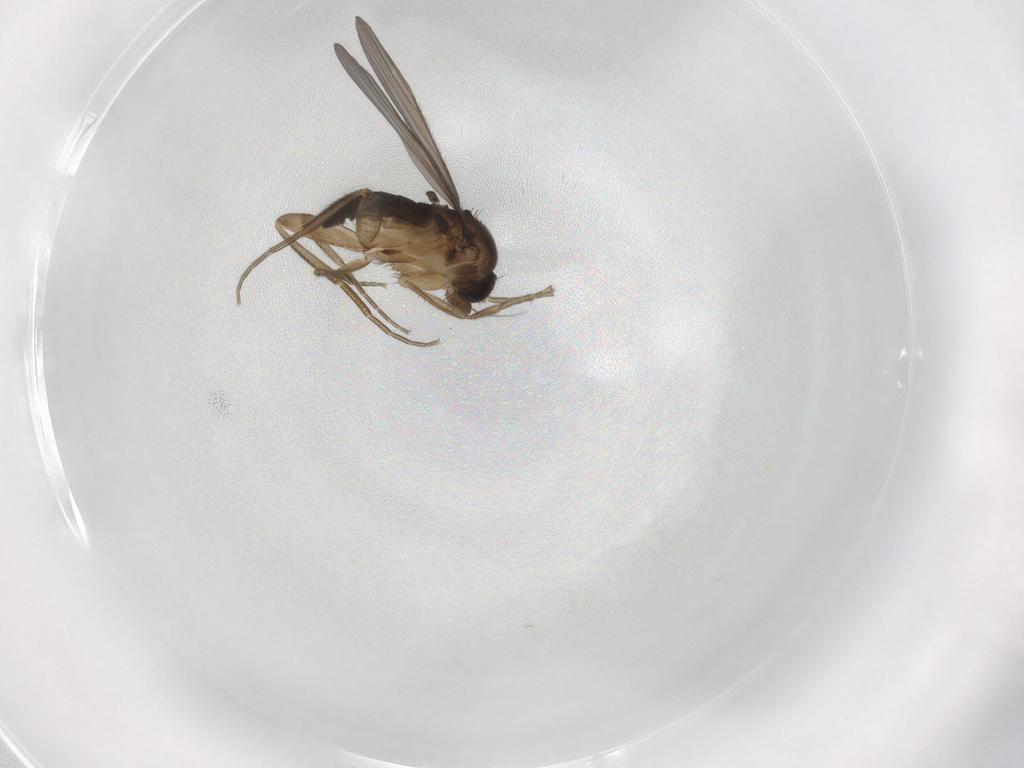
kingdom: Animalia
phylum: Arthropoda
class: Insecta
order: Diptera
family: Phoridae
